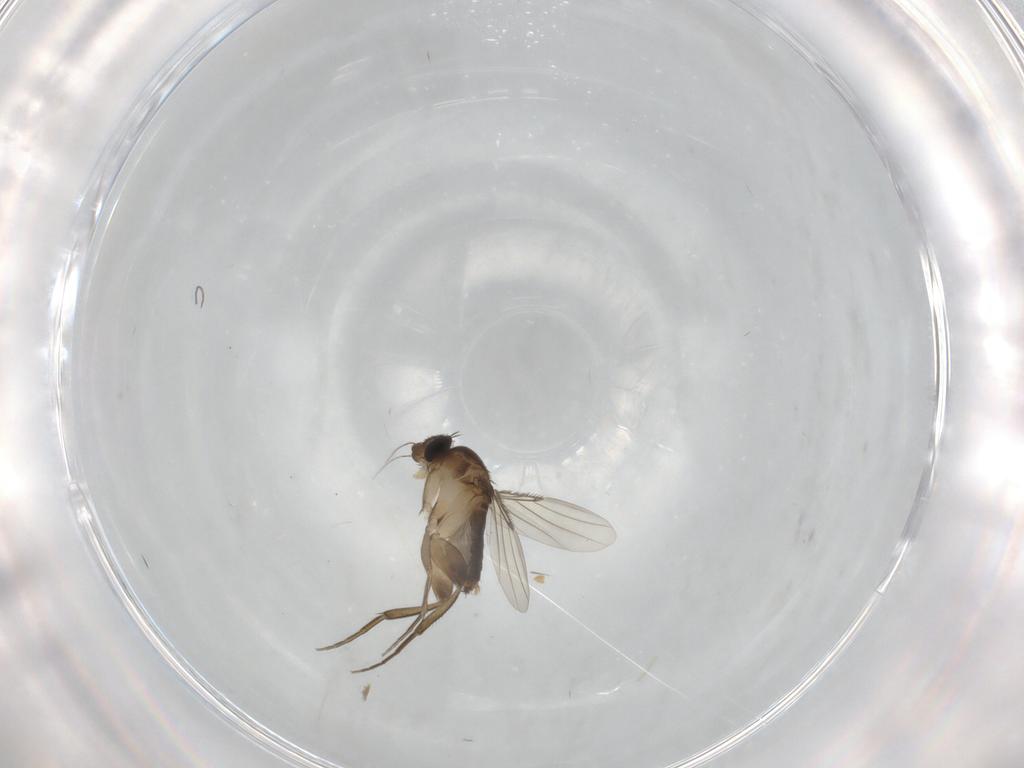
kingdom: Animalia
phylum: Arthropoda
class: Insecta
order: Diptera
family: Phoridae
